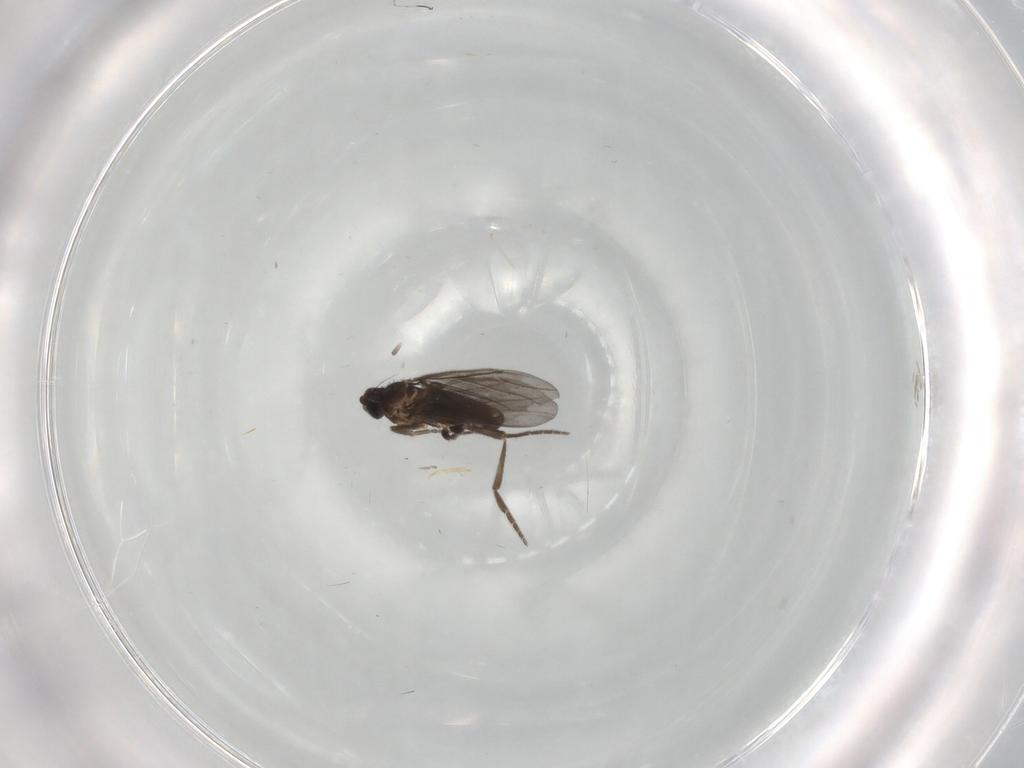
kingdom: Animalia
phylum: Arthropoda
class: Insecta
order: Diptera
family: Phoridae
